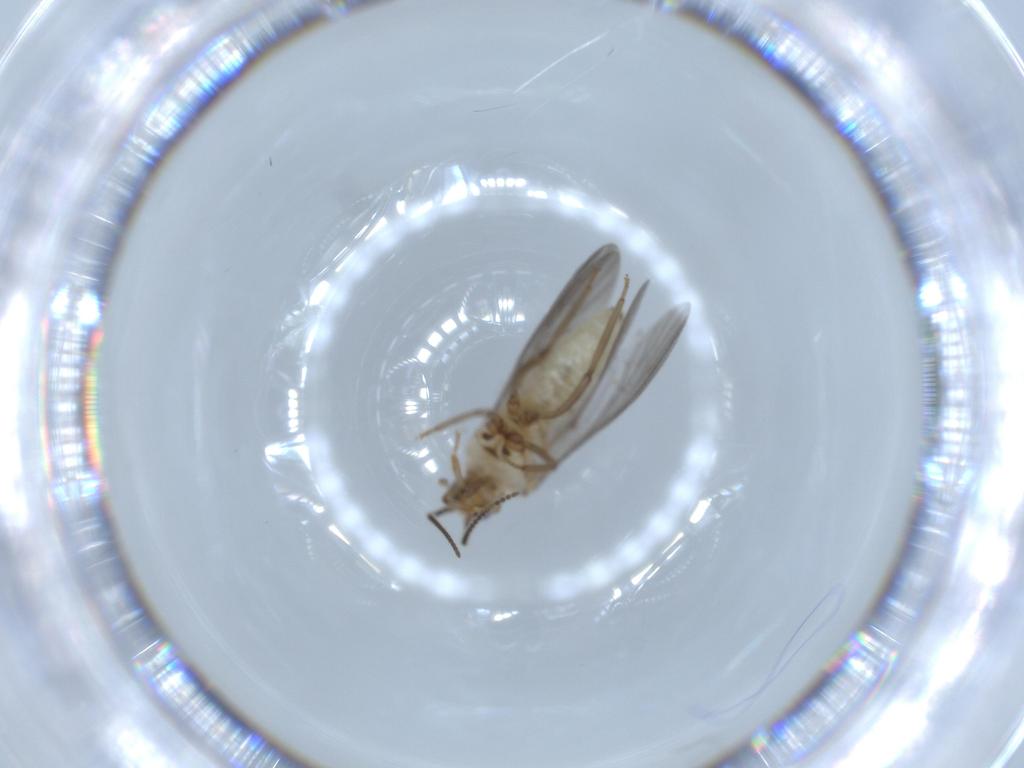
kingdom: Animalia
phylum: Arthropoda
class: Insecta
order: Neuroptera
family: Coniopterygidae
